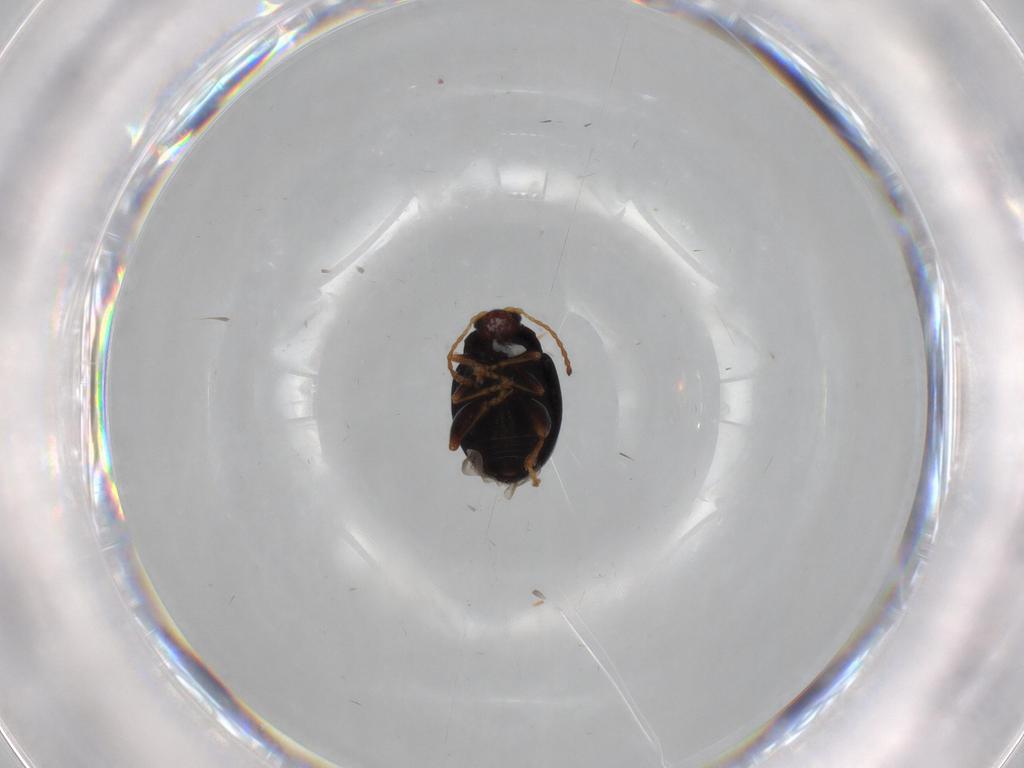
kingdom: Animalia
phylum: Arthropoda
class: Insecta
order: Coleoptera
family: Chrysomelidae
